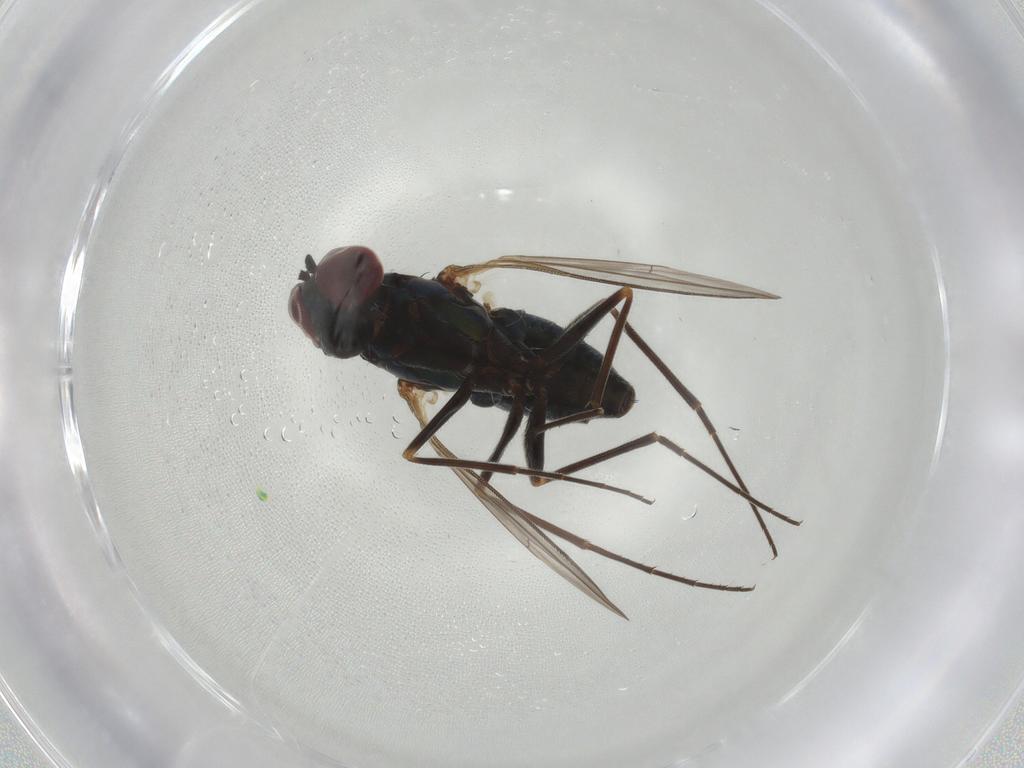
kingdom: Animalia
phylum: Arthropoda
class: Insecta
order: Diptera
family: Dolichopodidae
